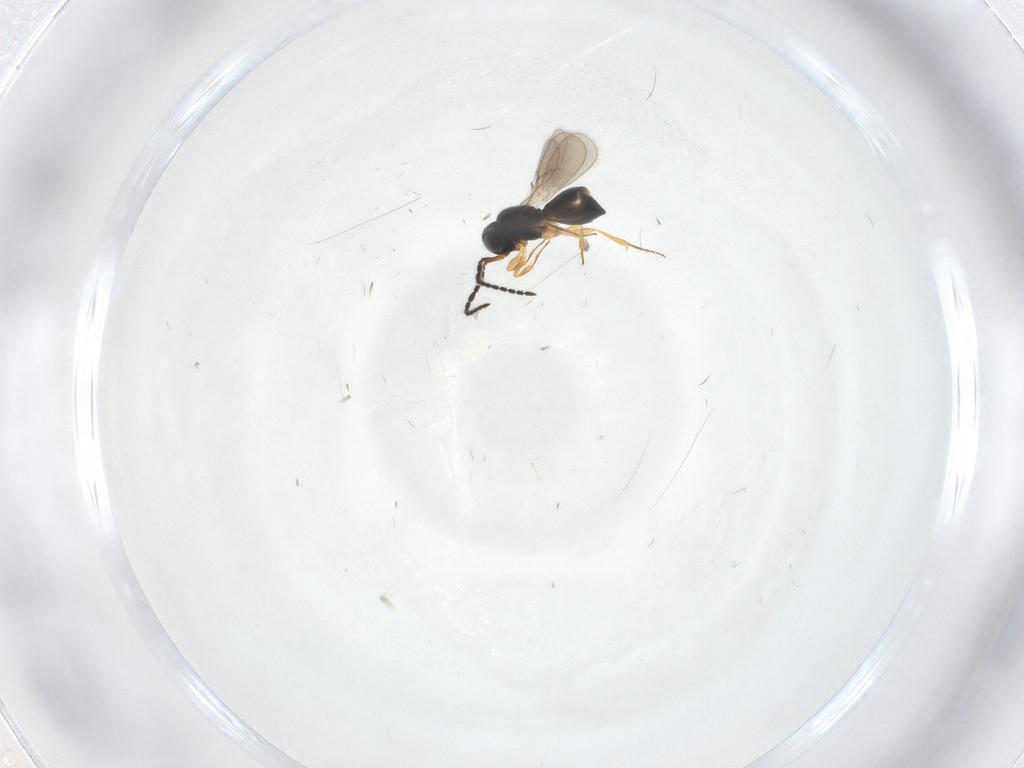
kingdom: Animalia
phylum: Arthropoda
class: Insecta
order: Hymenoptera
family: Scelionidae
